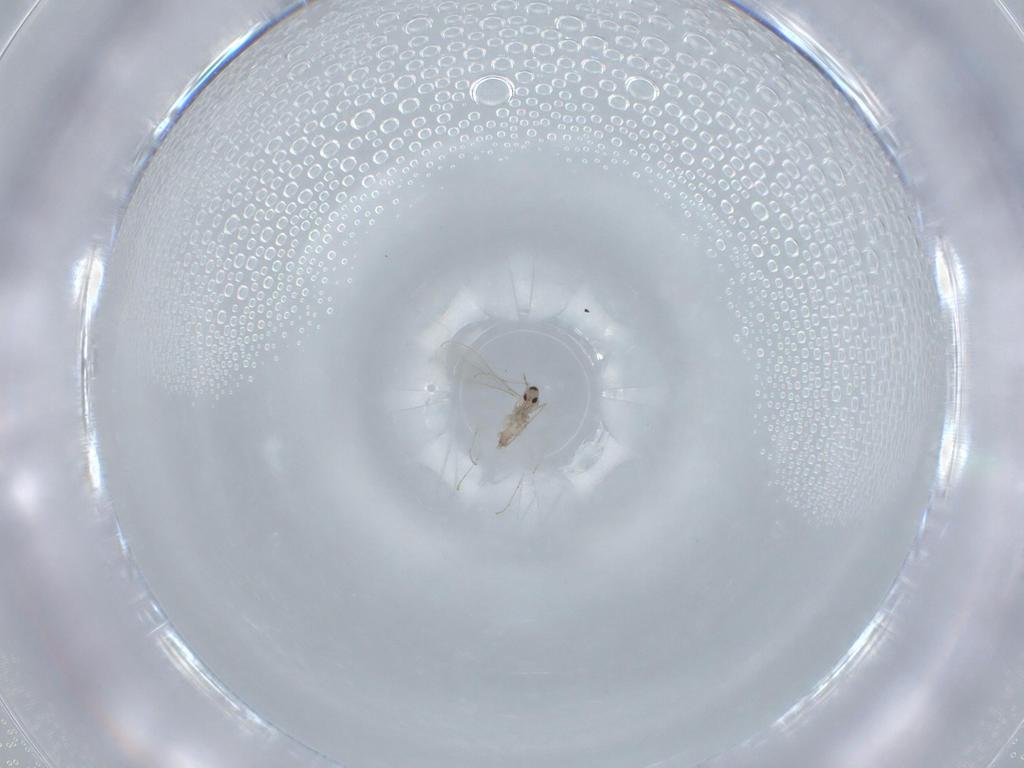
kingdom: Animalia
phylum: Arthropoda
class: Insecta
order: Diptera
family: Cecidomyiidae
